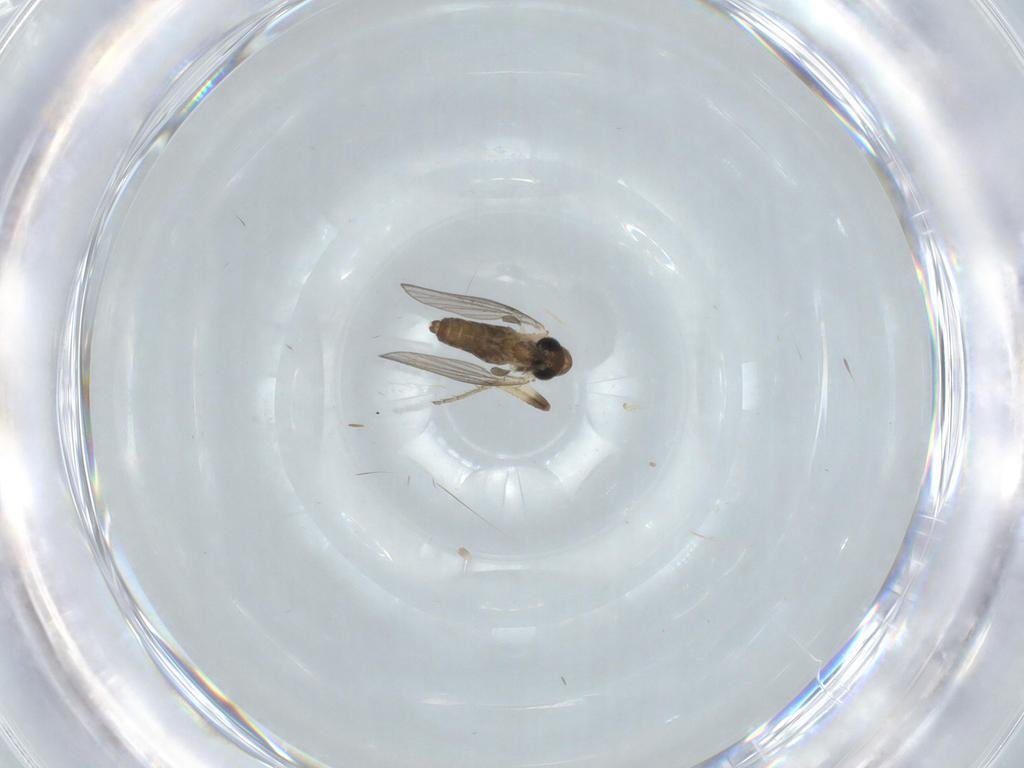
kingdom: Animalia
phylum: Arthropoda
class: Insecta
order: Diptera
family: Ceratopogonidae
